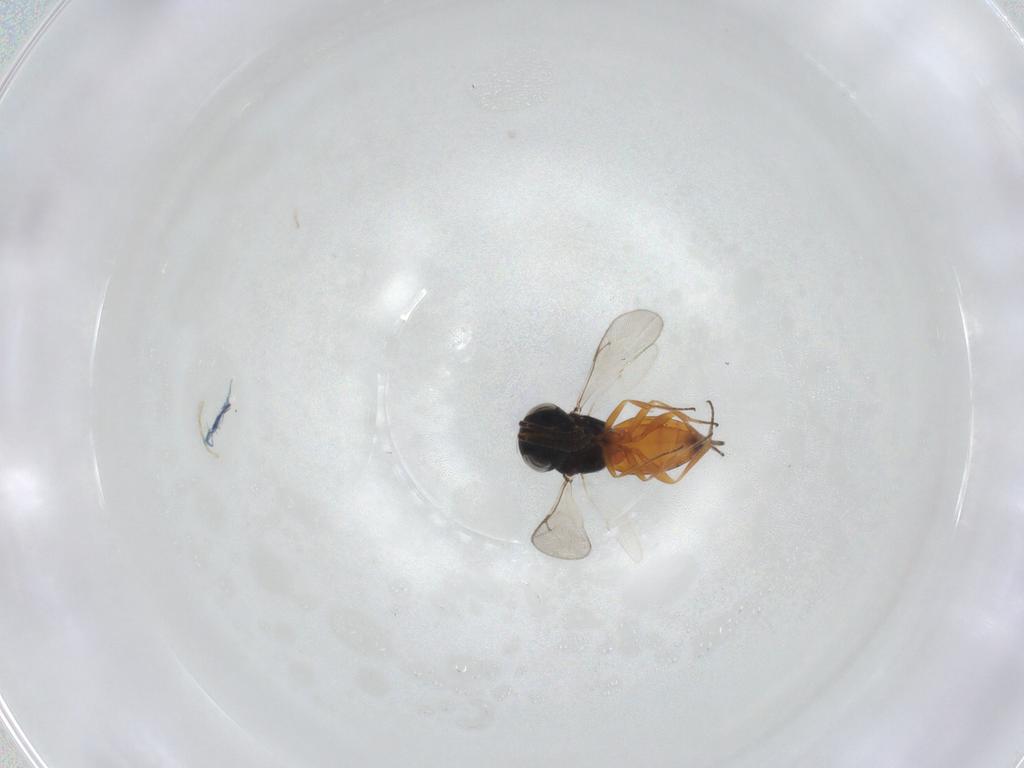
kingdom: Animalia
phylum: Arthropoda
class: Insecta
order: Hymenoptera
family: Scelionidae
